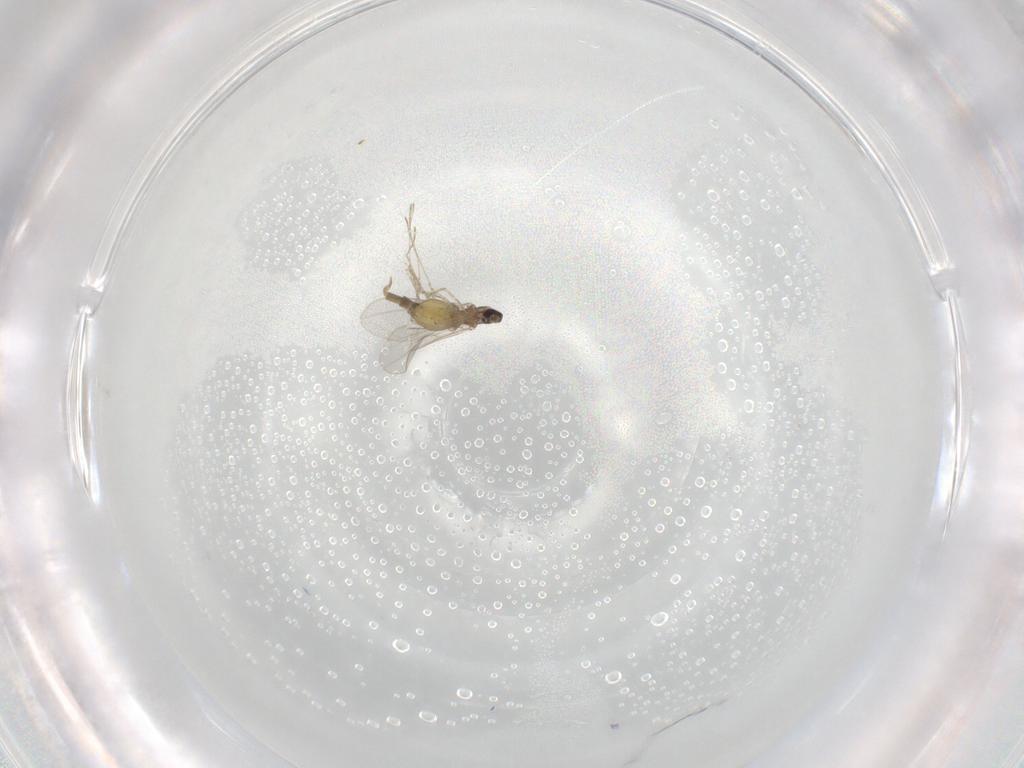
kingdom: Animalia
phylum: Arthropoda
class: Insecta
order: Diptera
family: Cecidomyiidae
